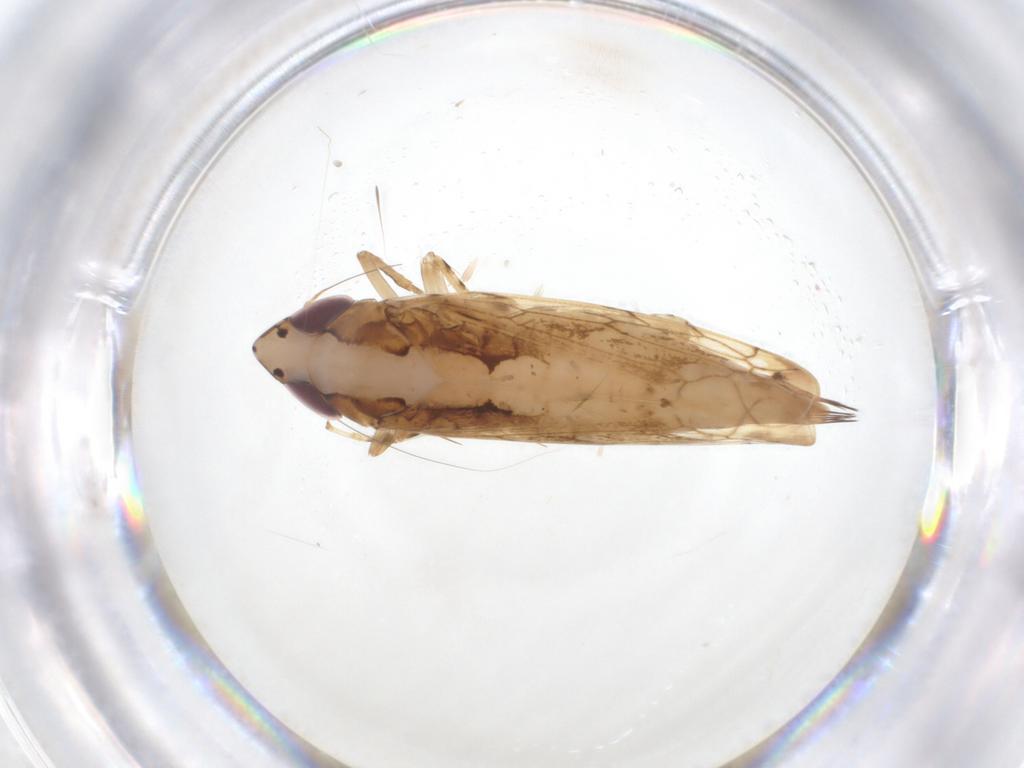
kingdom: Animalia
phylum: Arthropoda
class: Insecta
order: Hemiptera
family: Cicadellidae
